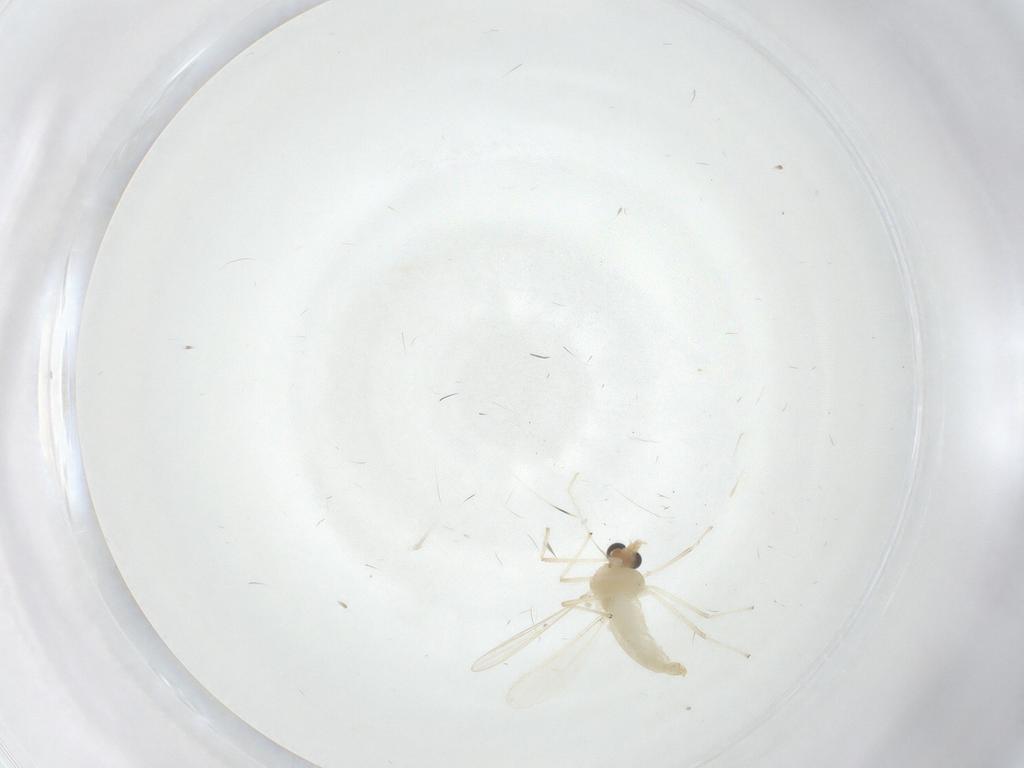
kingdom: Animalia
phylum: Arthropoda
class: Insecta
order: Diptera
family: Chironomidae
